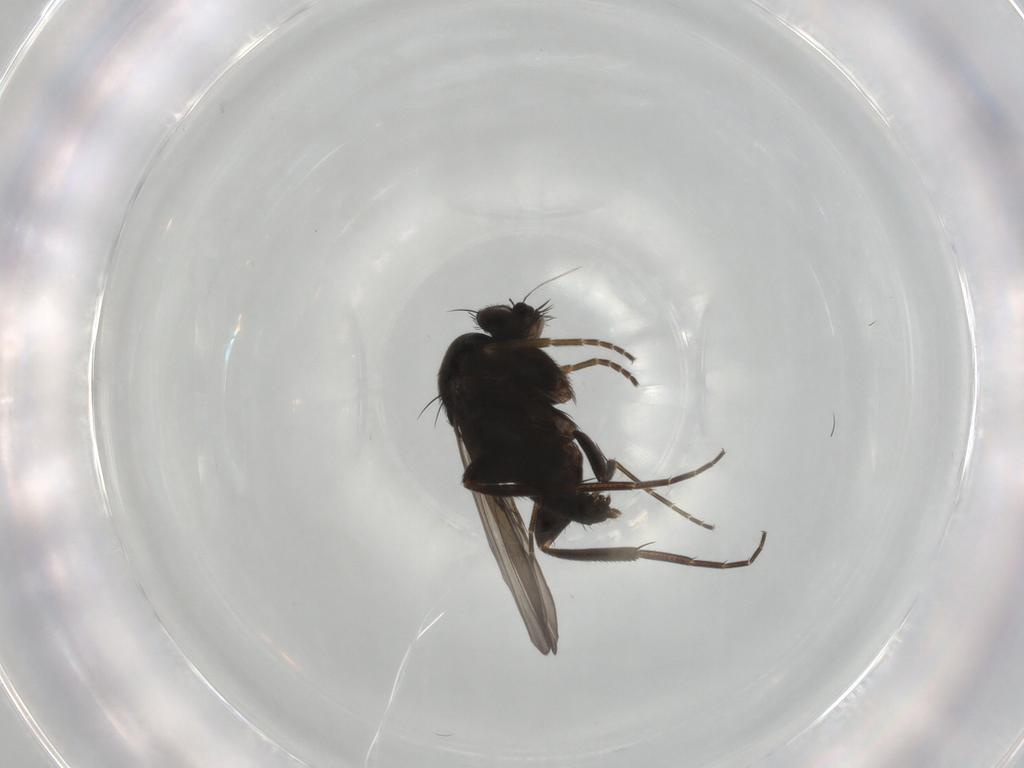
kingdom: Animalia
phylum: Arthropoda
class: Insecta
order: Diptera
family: Phoridae
